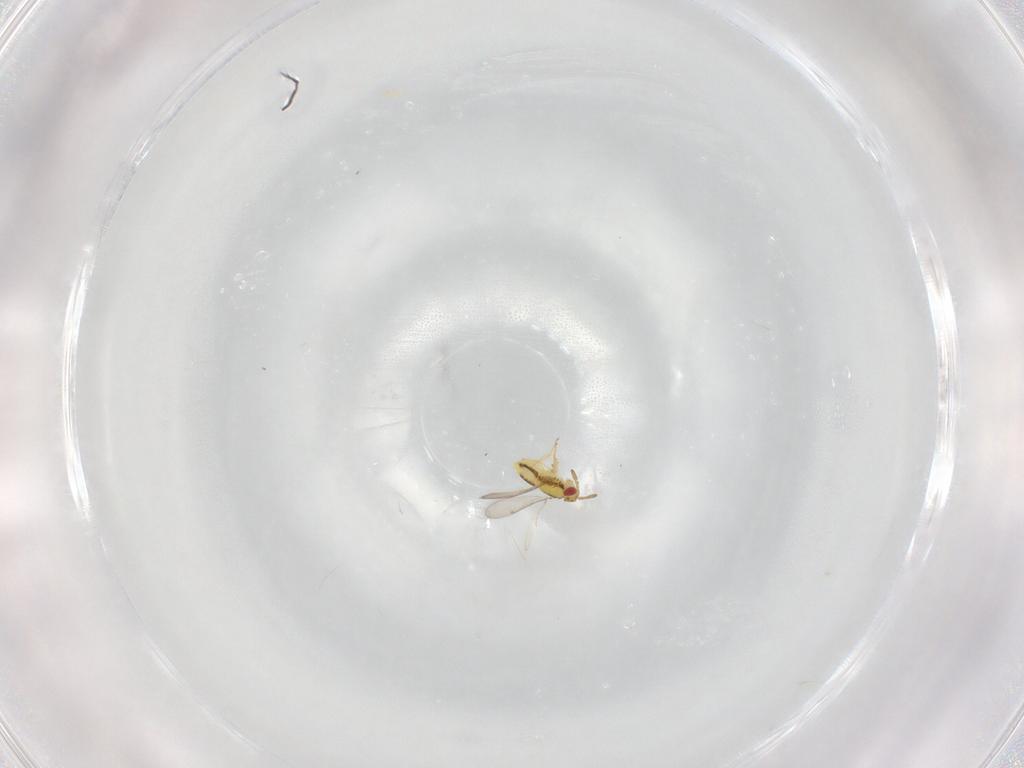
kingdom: Animalia
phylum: Arthropoda
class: Insecta
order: Hymenoptera
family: Aphelinidae
